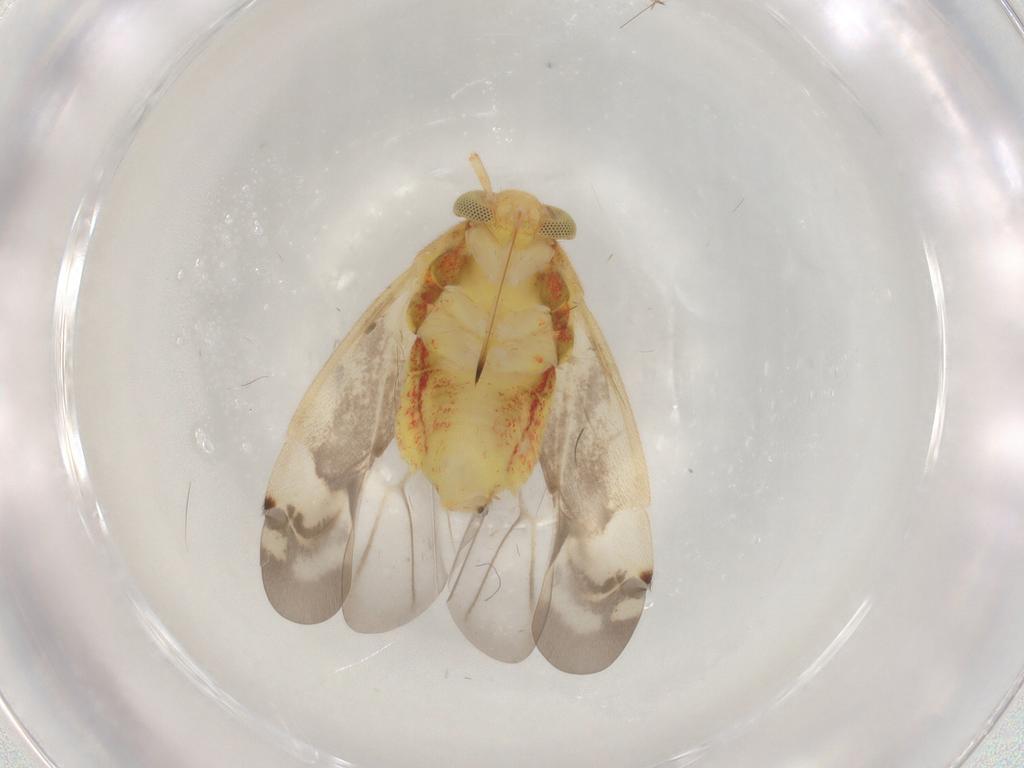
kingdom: Animalia
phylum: Arthropoda
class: Insecta
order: Hemiptera
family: Miridae
